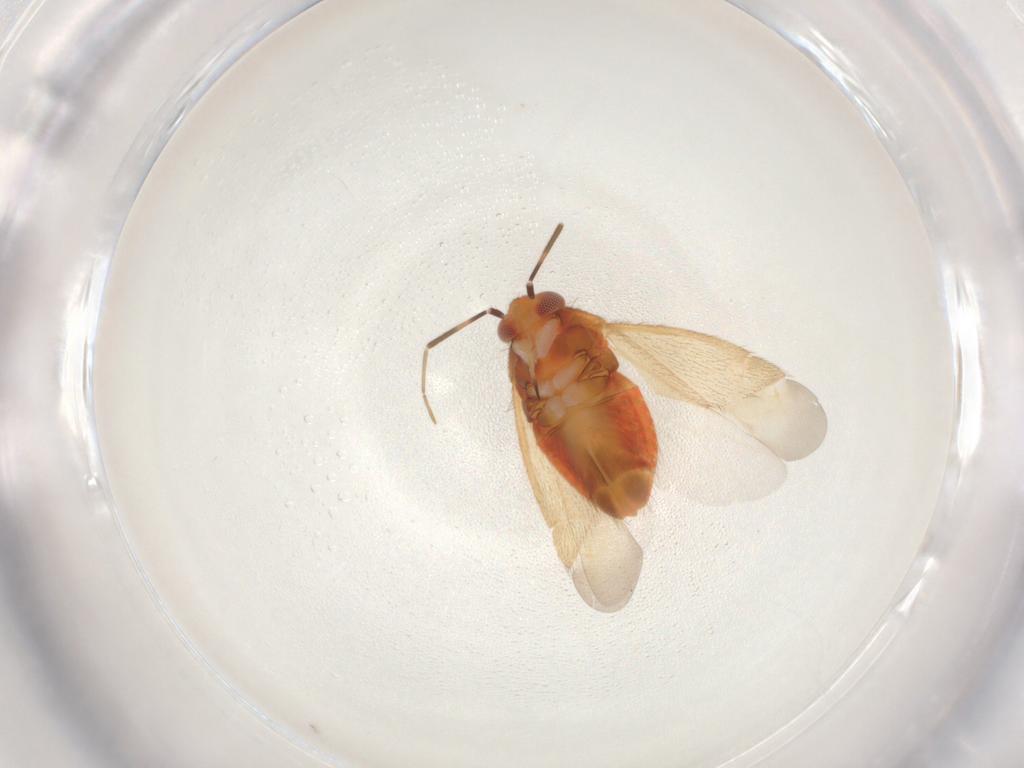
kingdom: Animalia
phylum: Arthropoda
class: Insecta
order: Hemiptera
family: Miridae
